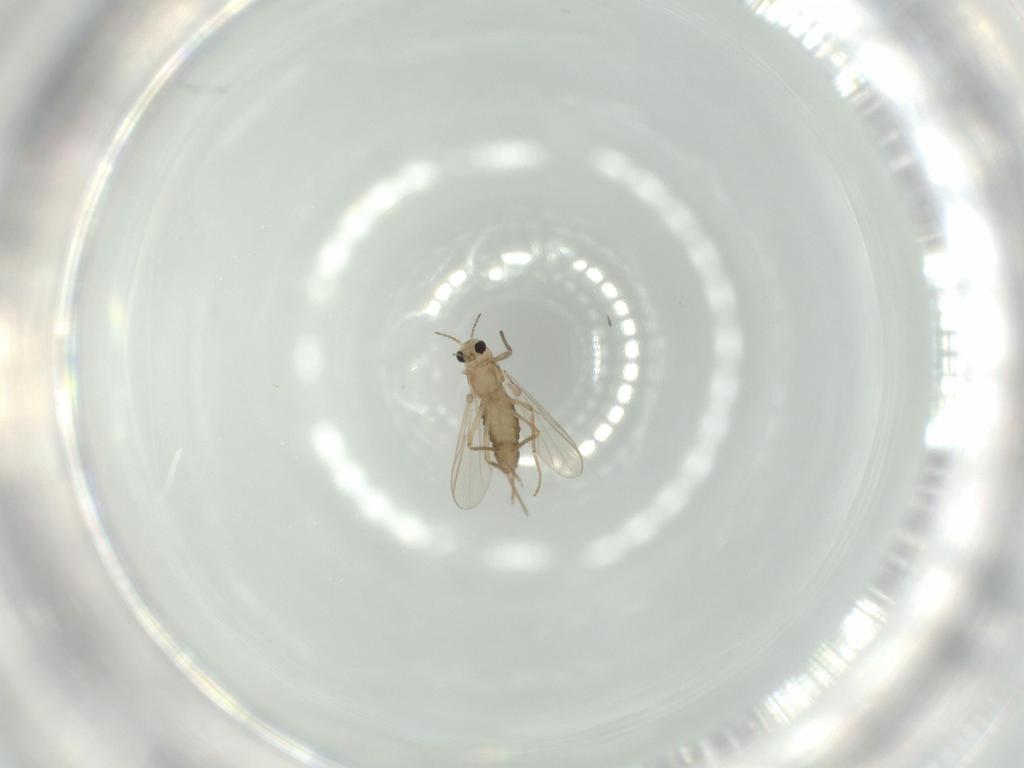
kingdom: Animalia
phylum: Arthropoda
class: Insecta
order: Diptera
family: Chironomidae
